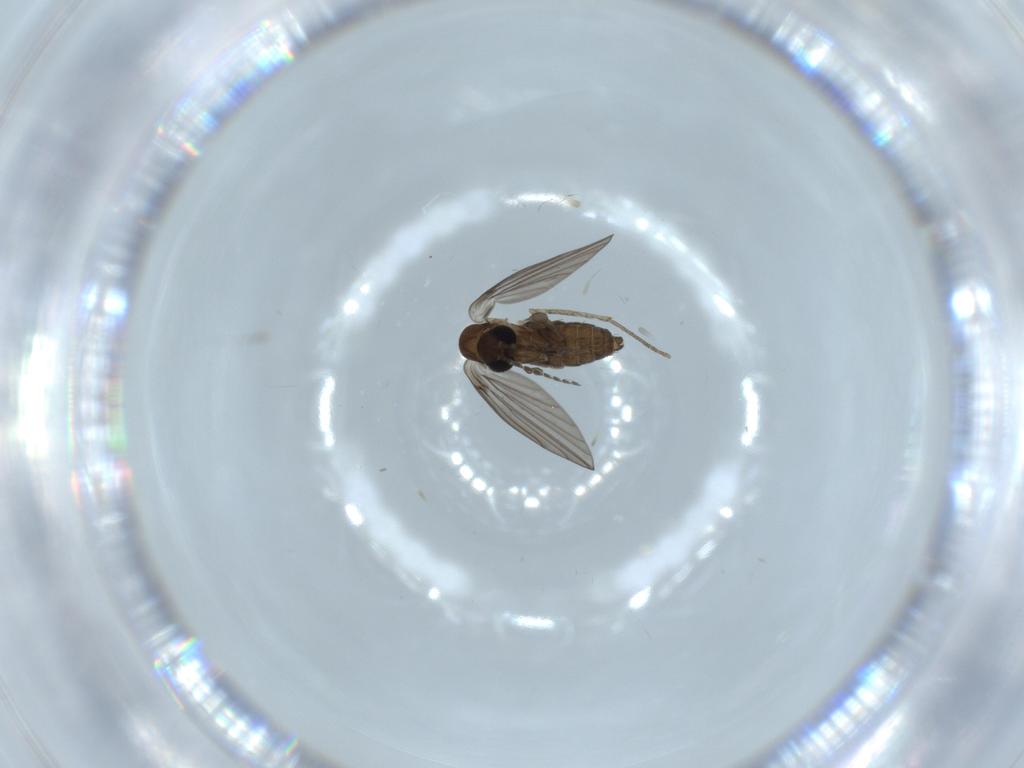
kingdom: Animalia
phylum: Arthropoda
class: Insecta
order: Diptera
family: Psychodidae
